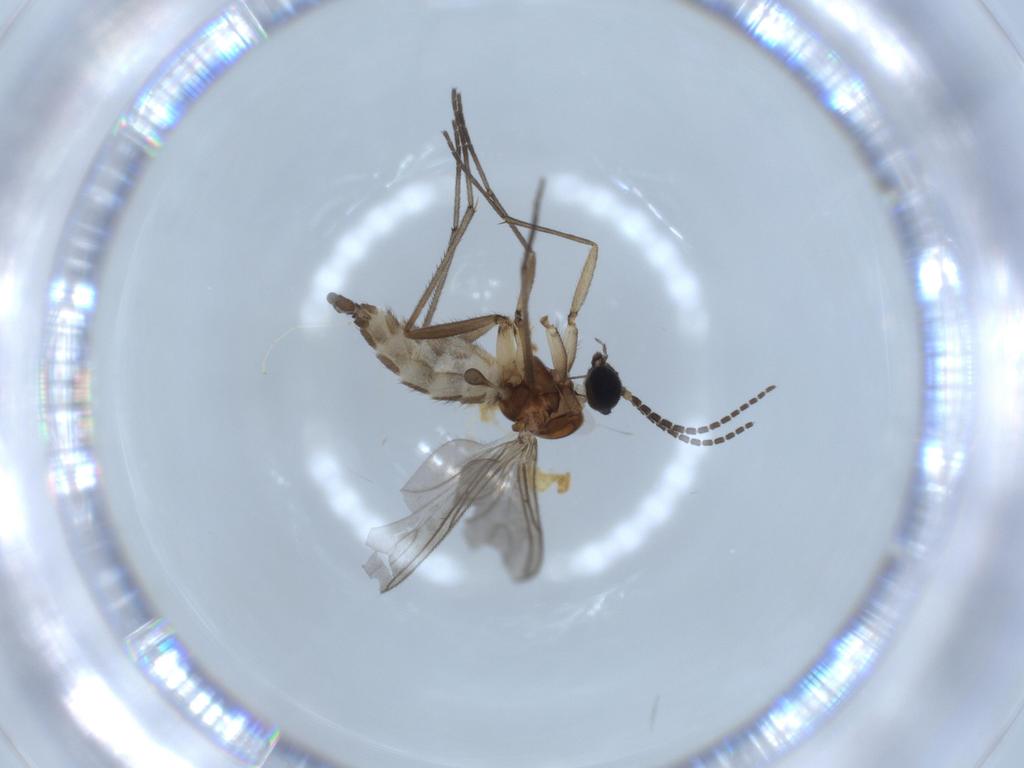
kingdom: Animalia
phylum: Arthropoda
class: Insecta
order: Diptera
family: Sciaridae
